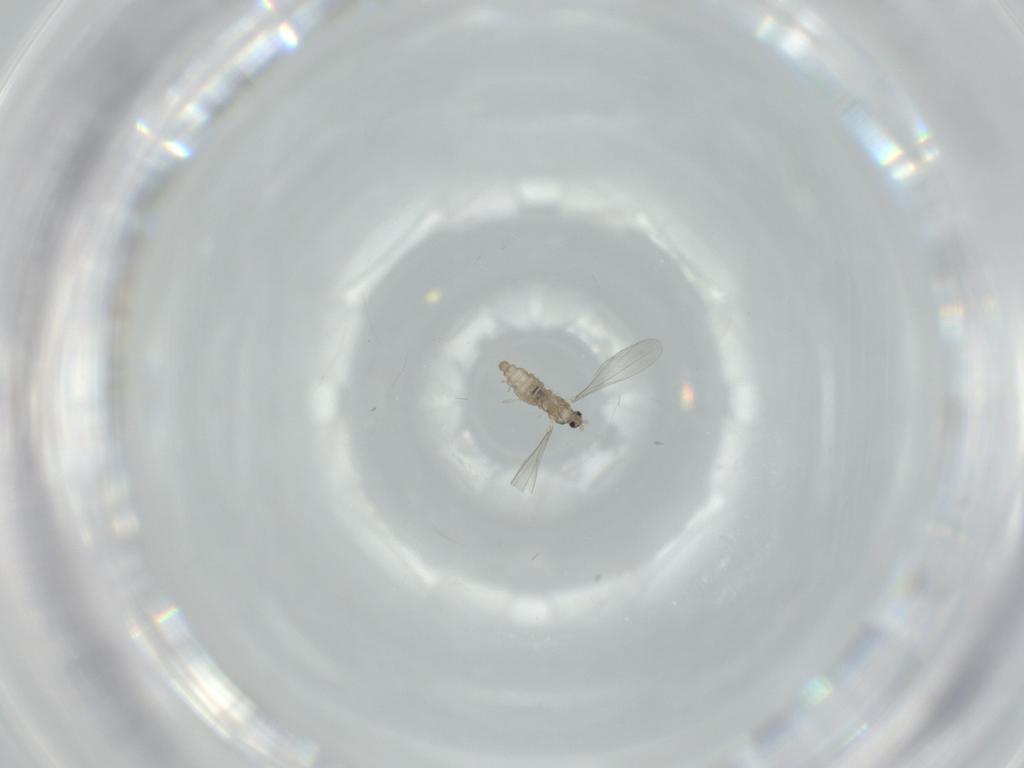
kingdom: Animalia
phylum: Arthropoda
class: Insecta
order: Diptera
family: Cecidomyiidae
